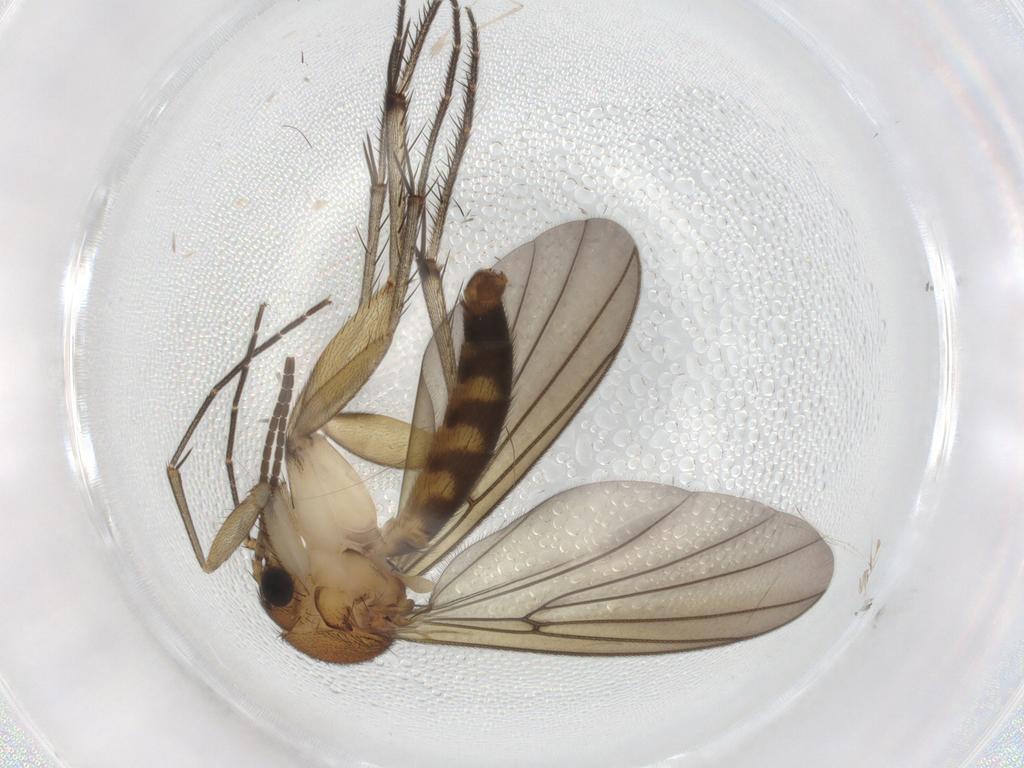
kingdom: Animalia
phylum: Arthropoda
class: Insecta
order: Diptera
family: Mycetophilidae
